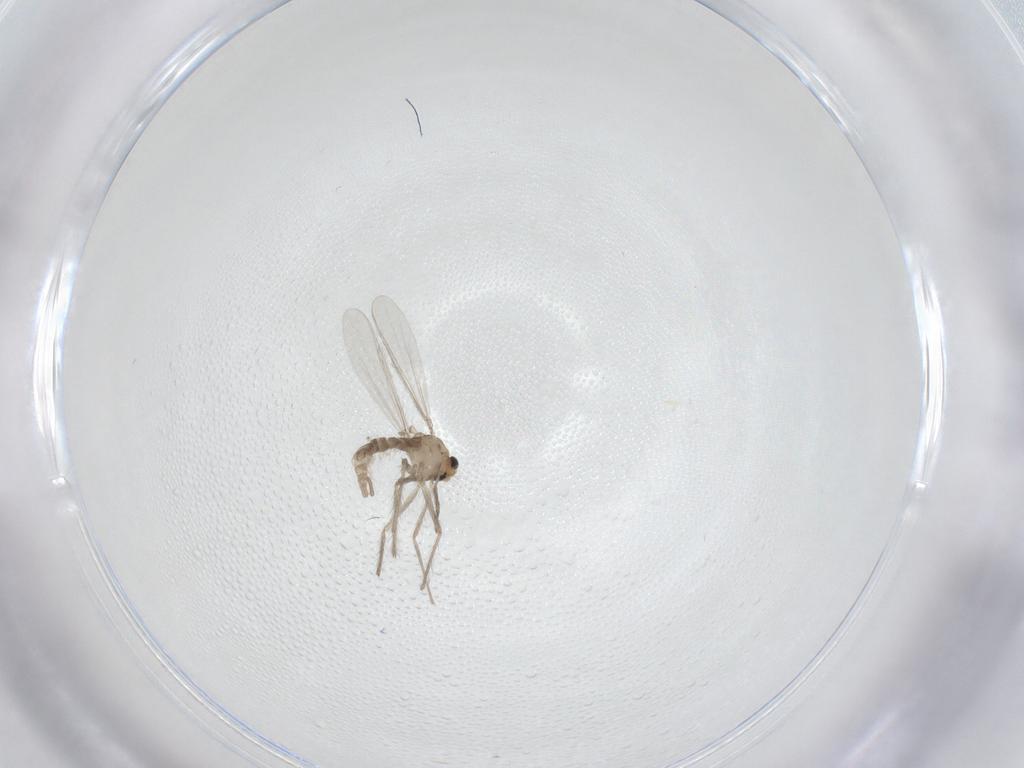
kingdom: Animalia
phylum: Arthropoda
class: Insecta
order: Diptera
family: Chironomidae
